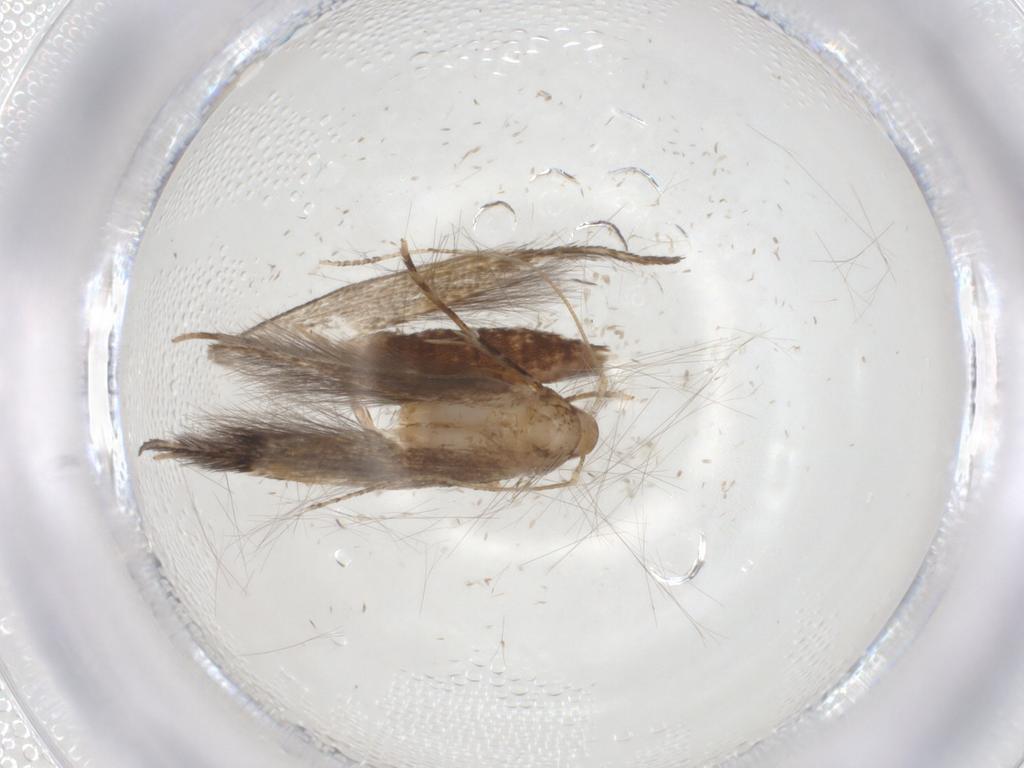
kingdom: Animalia
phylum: Arthropoda
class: Insecta
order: Lepidoptera
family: Cosmopterigidae
